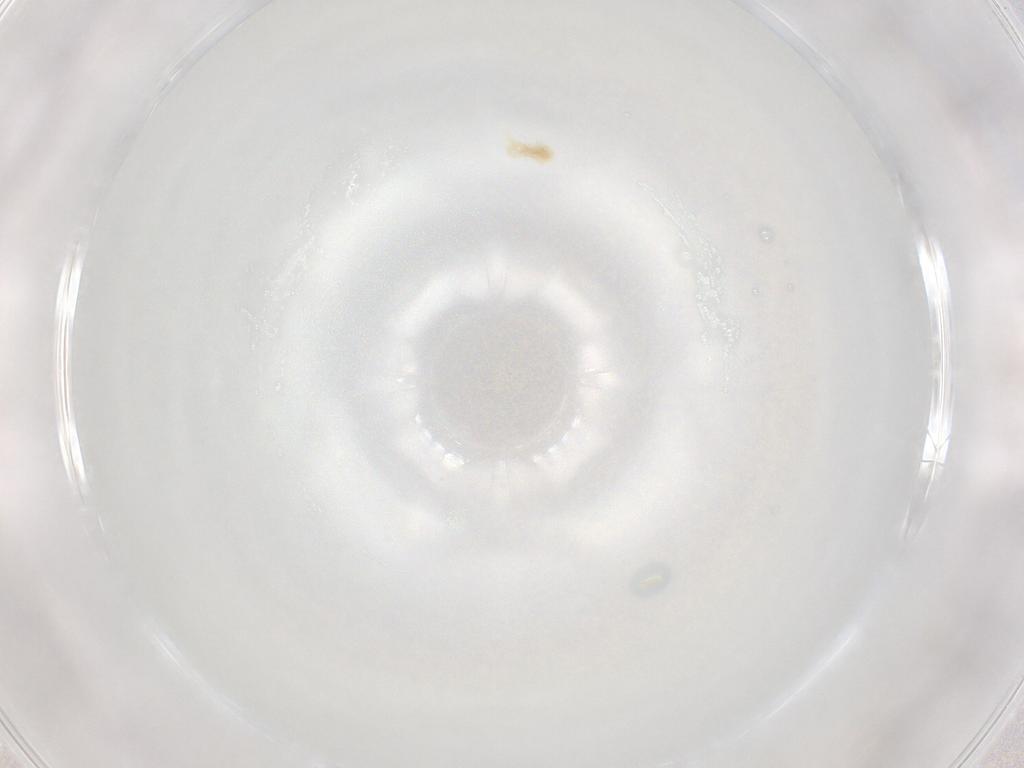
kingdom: Animalia
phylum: Arthropoda
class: Arachnida
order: Trombidiformes
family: Eupodidae
